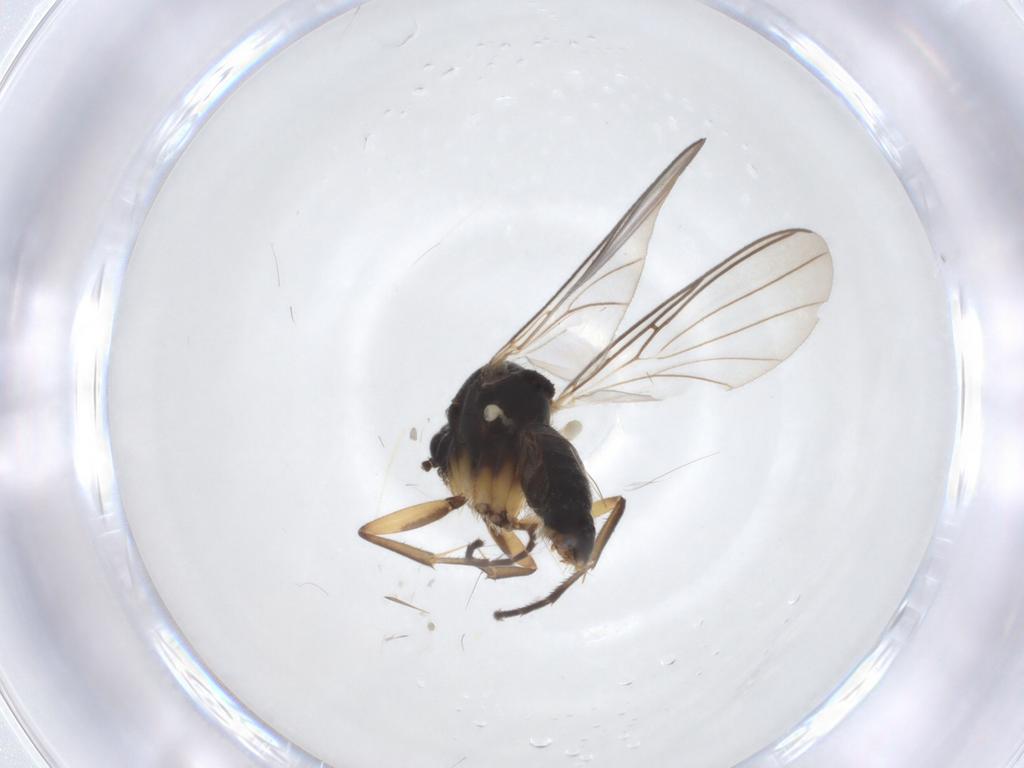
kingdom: Animalia
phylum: Arthropoda
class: Insecta
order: Diptera
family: Mycetophilidae
